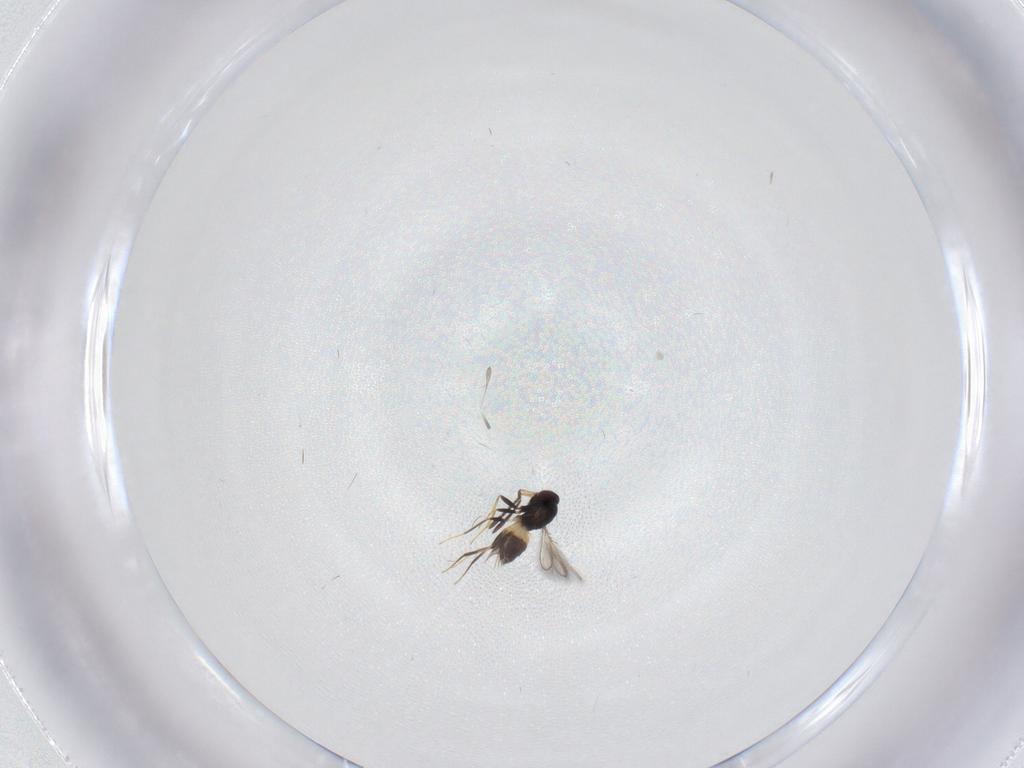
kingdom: Animalia
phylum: Arthropoda
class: Insecta
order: Hymenoptera
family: Mymaridae
